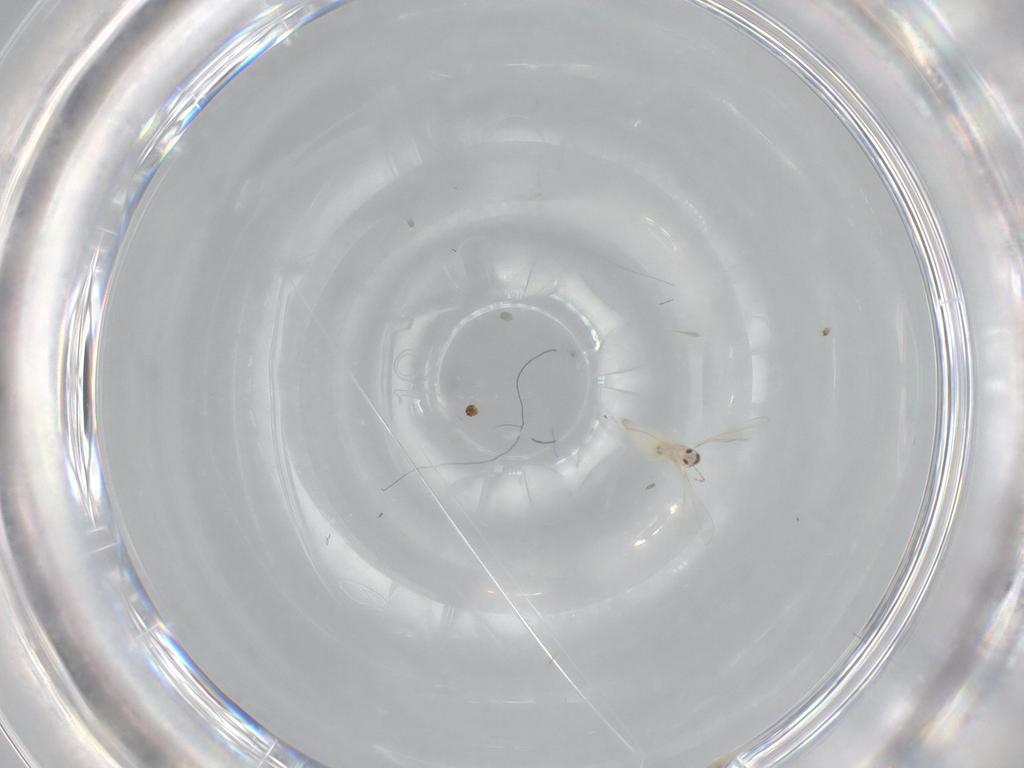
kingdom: Animalia
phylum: Arthropoda
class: Insecta
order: Diptera
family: Cecidomyiidae
